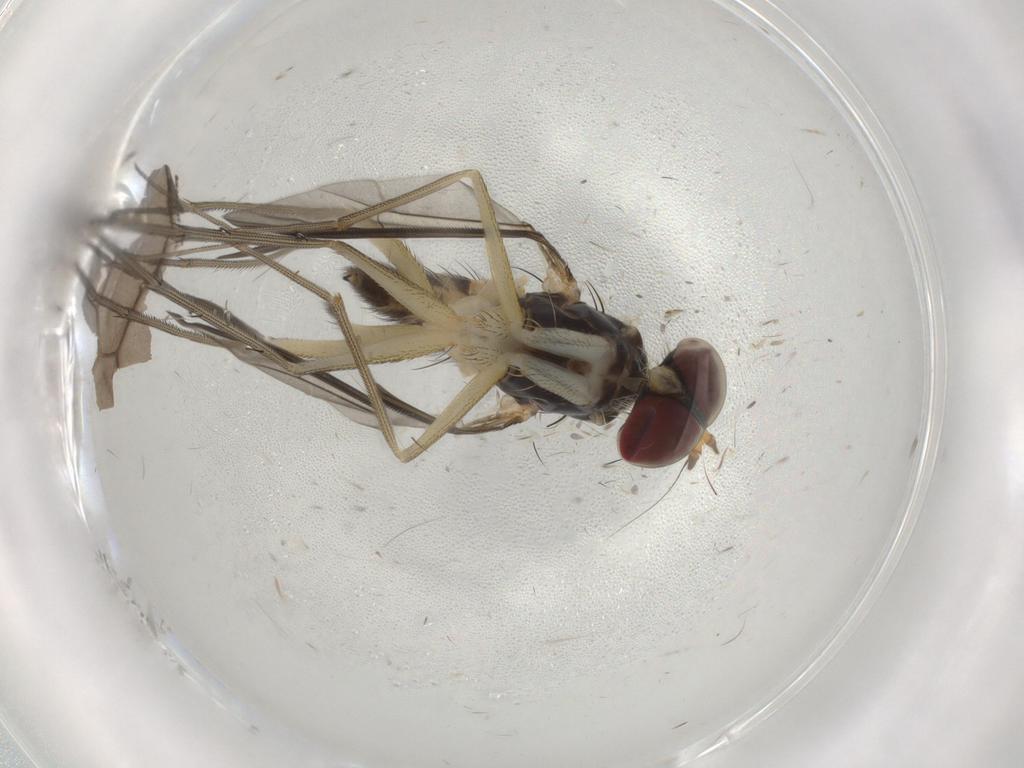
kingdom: Animalia
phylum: Arthropoda
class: Insecta
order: Diptera
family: Dolichopodidae
